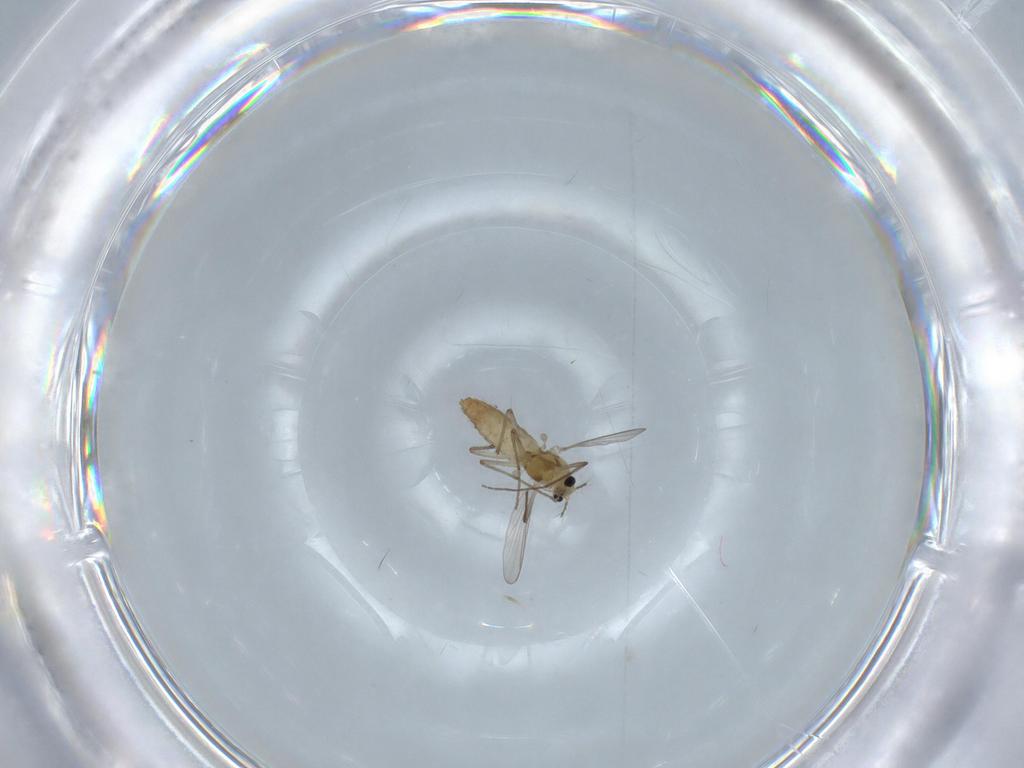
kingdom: Animalia
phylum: Arthropoda
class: Insecta
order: Diptera
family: Chironomidae
